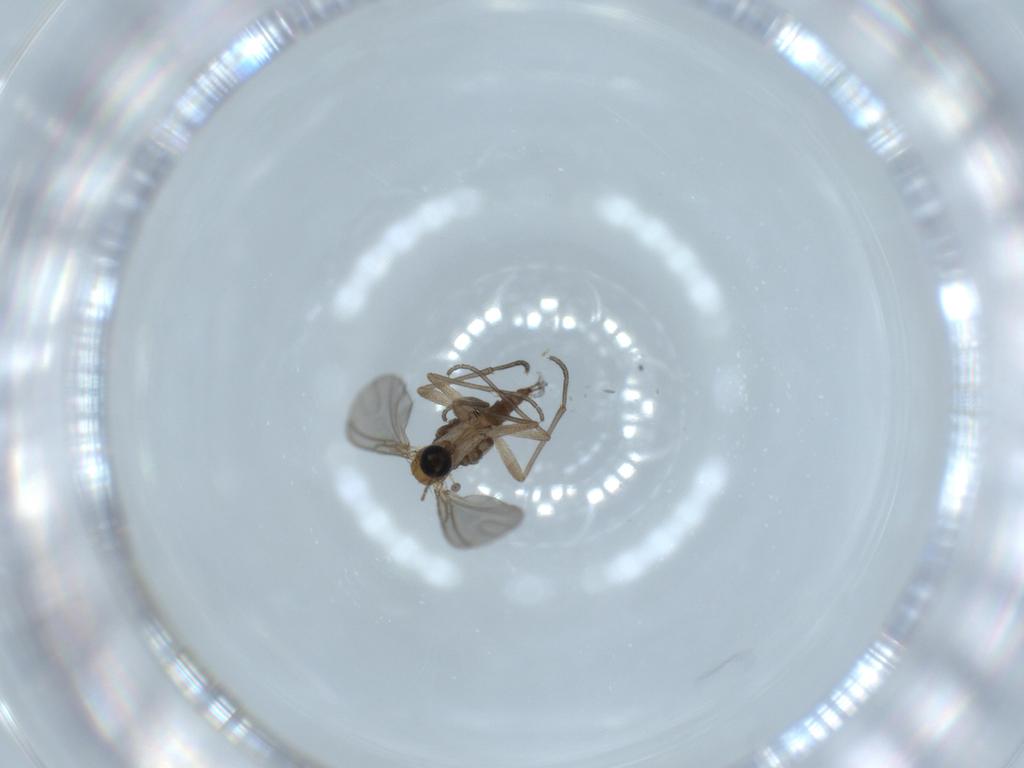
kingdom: Animalia
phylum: Arthropoda
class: Insecta
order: Diptera
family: Sciaridae
